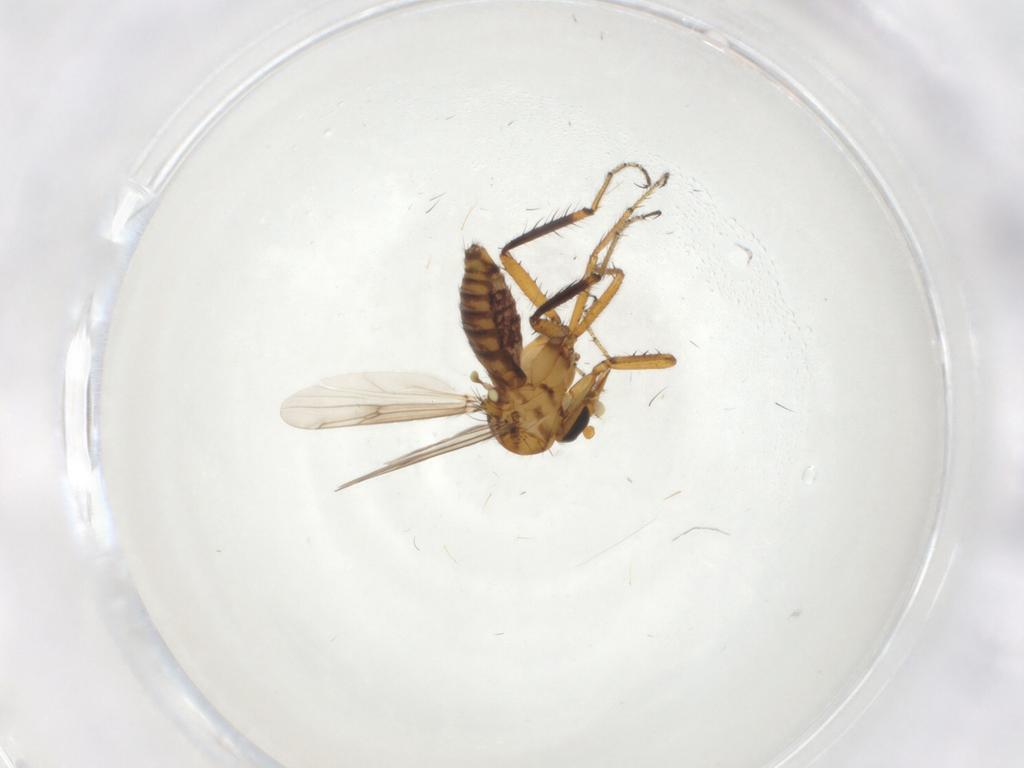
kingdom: Animalia
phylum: Arthropoda
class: Insecta
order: Diptera
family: Ceratopogonidae
